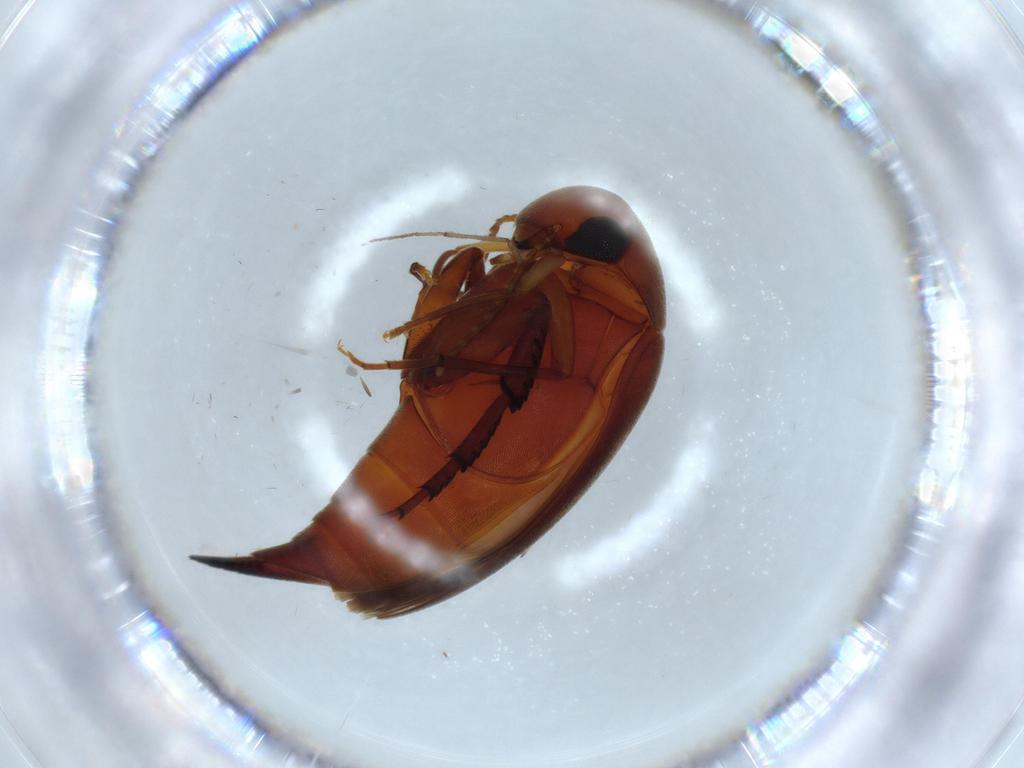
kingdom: Animalia
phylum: Arthropoda
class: Insecta
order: Coleoptera
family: Mordellidae
